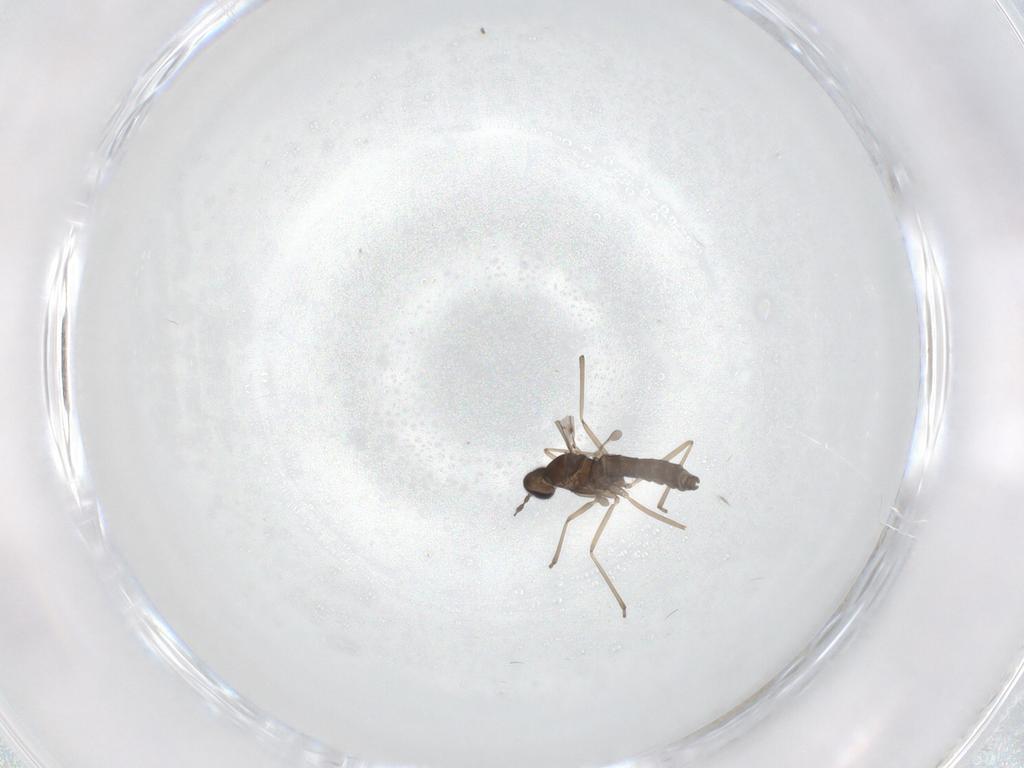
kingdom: Animalia
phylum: Arthropoda
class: Insecta
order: Diptera
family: Cecidomyiidae
